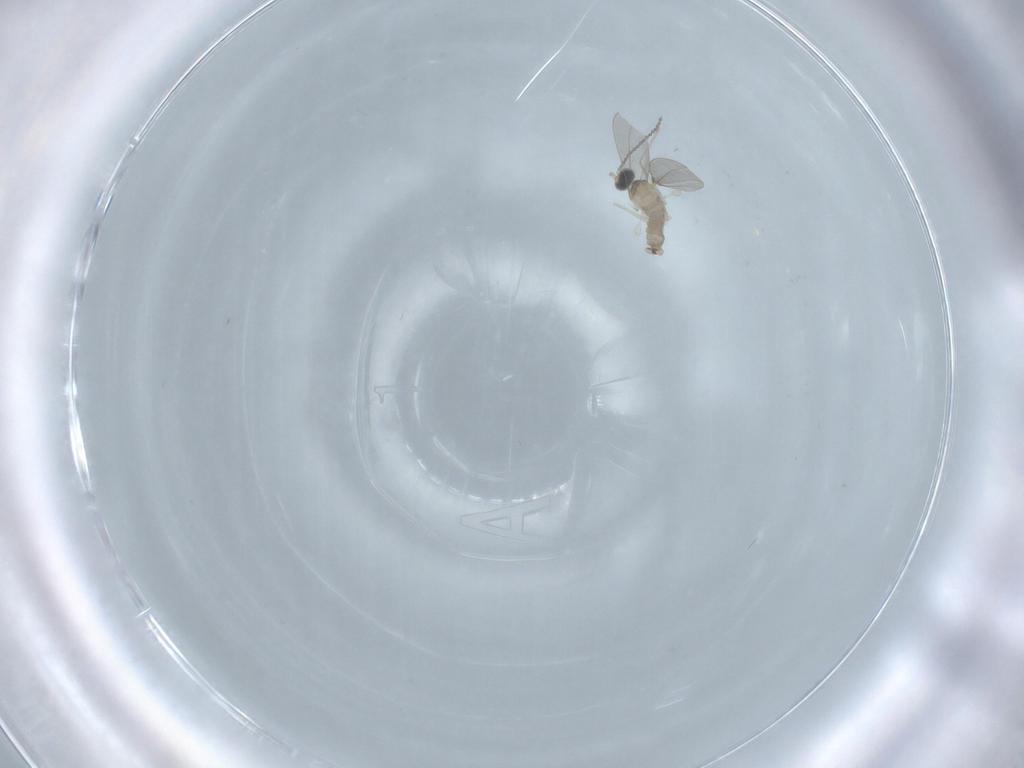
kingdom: Animalia
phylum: Arthropoda
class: Insecta
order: Diptera
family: Cecidomyiidae
